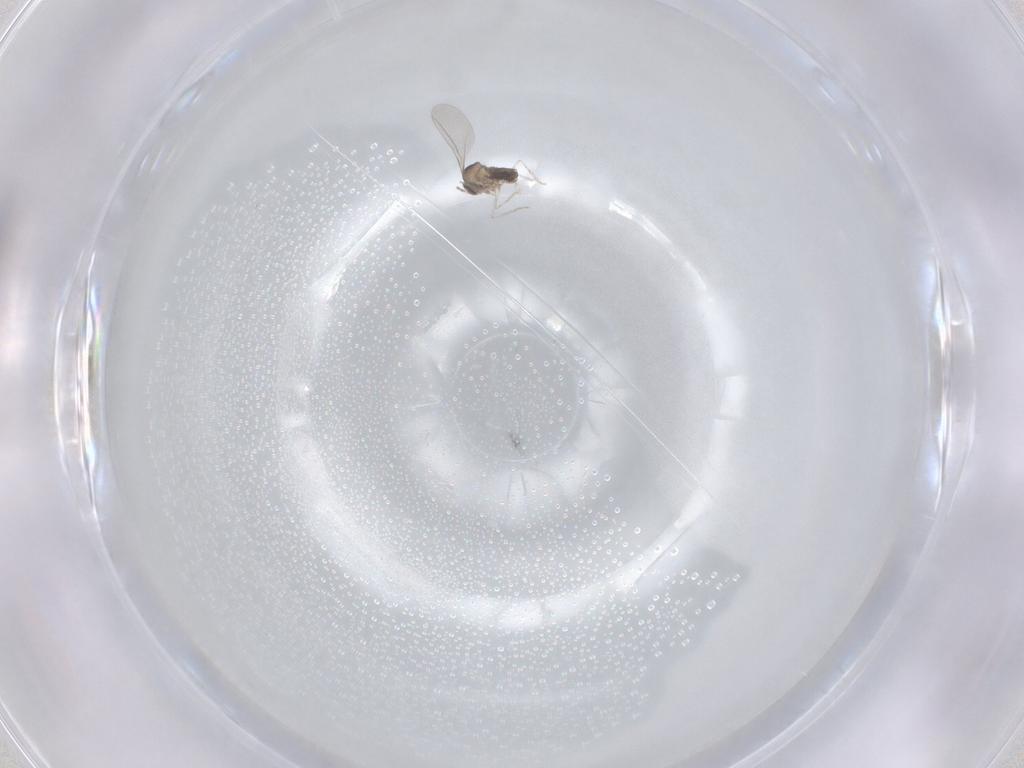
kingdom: Animalia
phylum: Arthropoda
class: Insecta
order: Diptera
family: Cecidomyiidae
